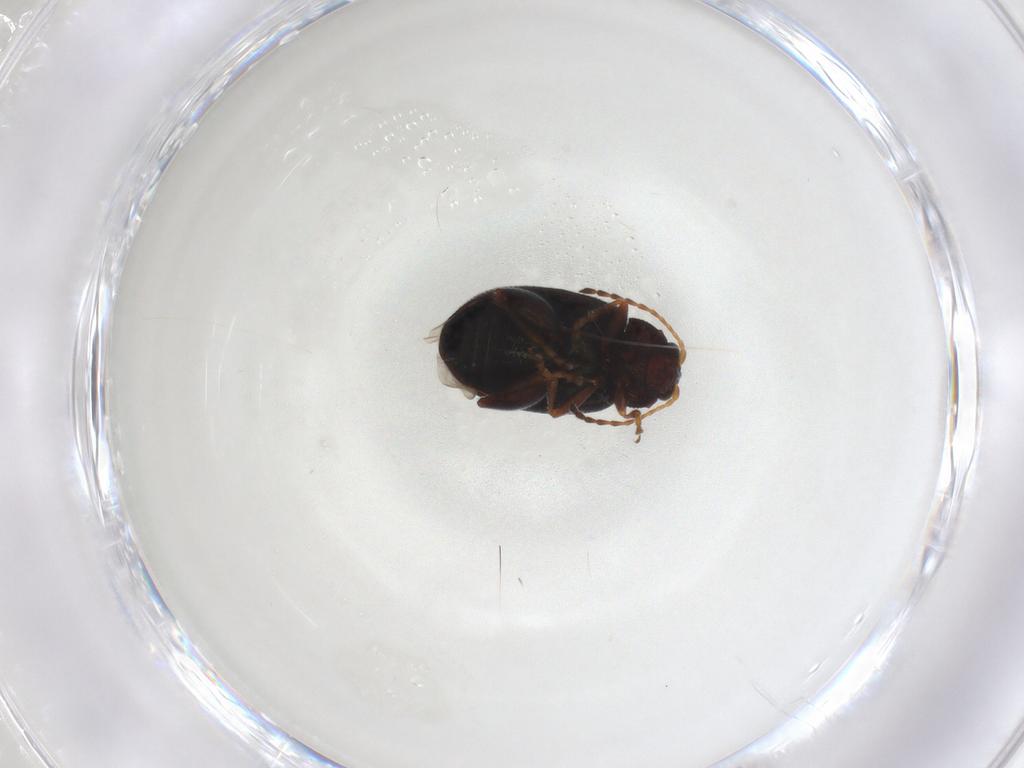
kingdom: Animalia
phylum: Arthropoda
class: Insecta
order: Coleoptera
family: Chrysomelidae
